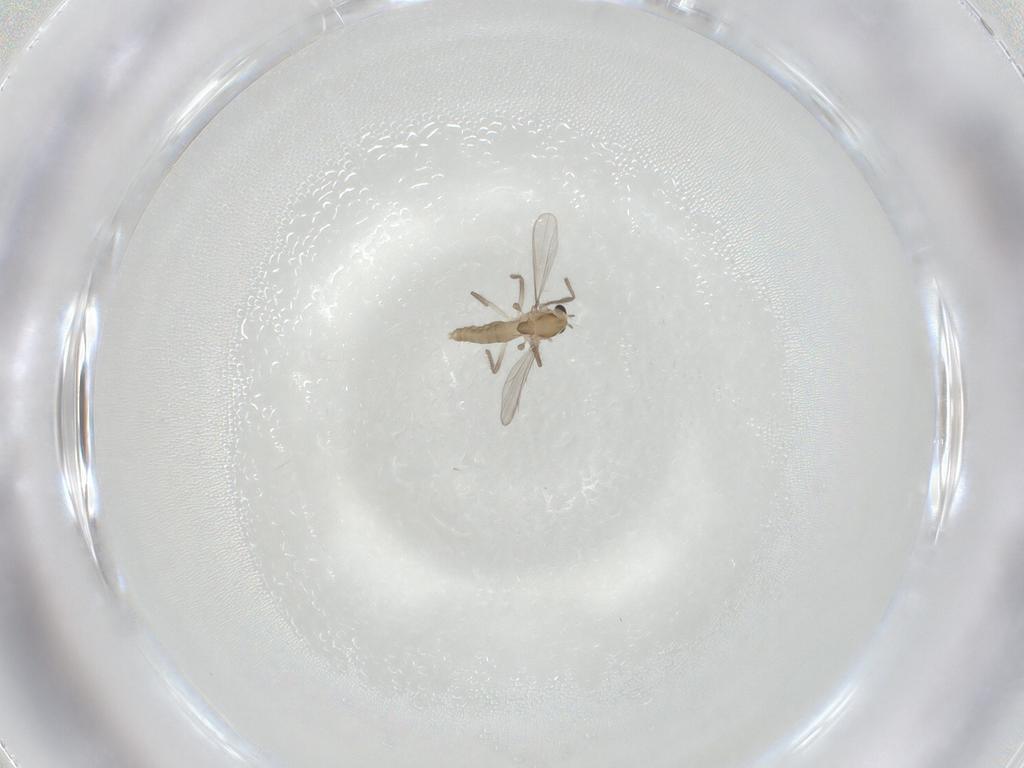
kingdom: Animalia
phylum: Arthropoda
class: Insecta
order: Diptera
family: Chironomidae
